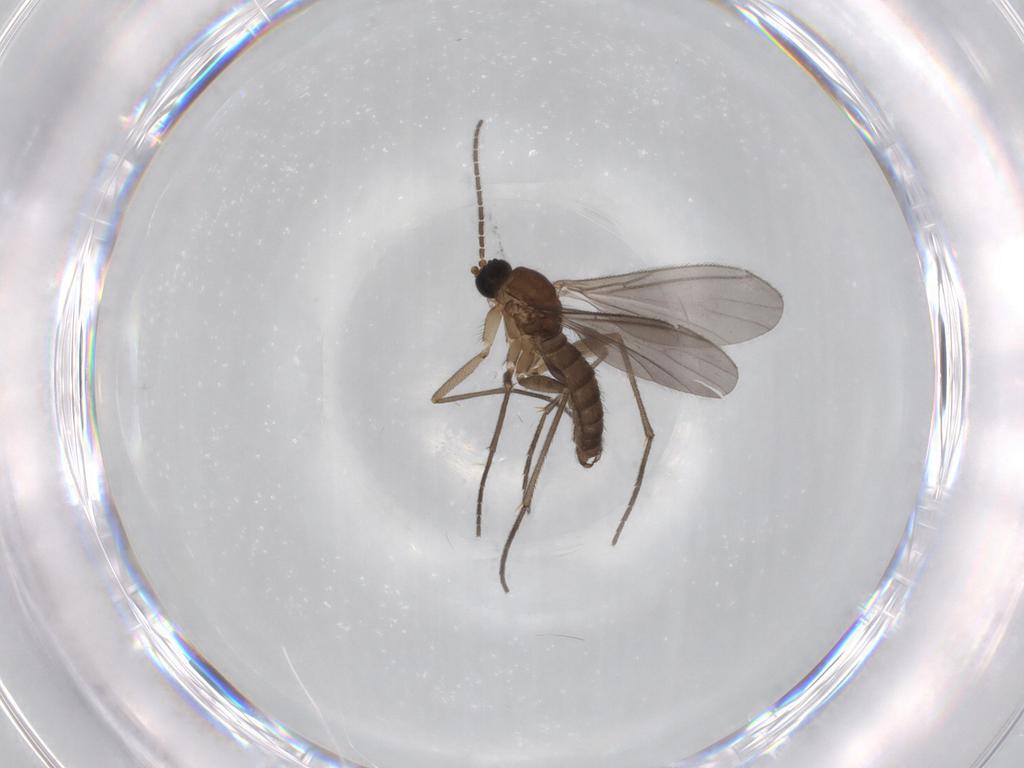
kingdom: Animalia
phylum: Arthropoda
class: Insecta
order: Diptera
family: Sciaridae
